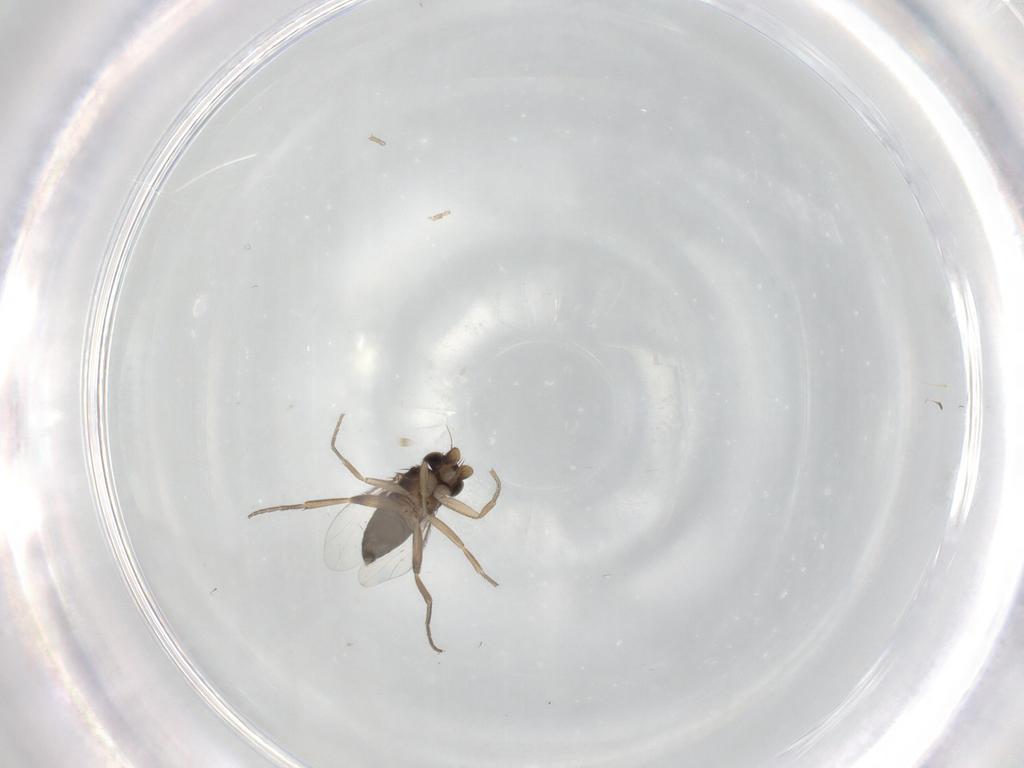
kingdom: Animalia
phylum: Arthropoda
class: Insecta
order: Diptera
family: Phoridae
